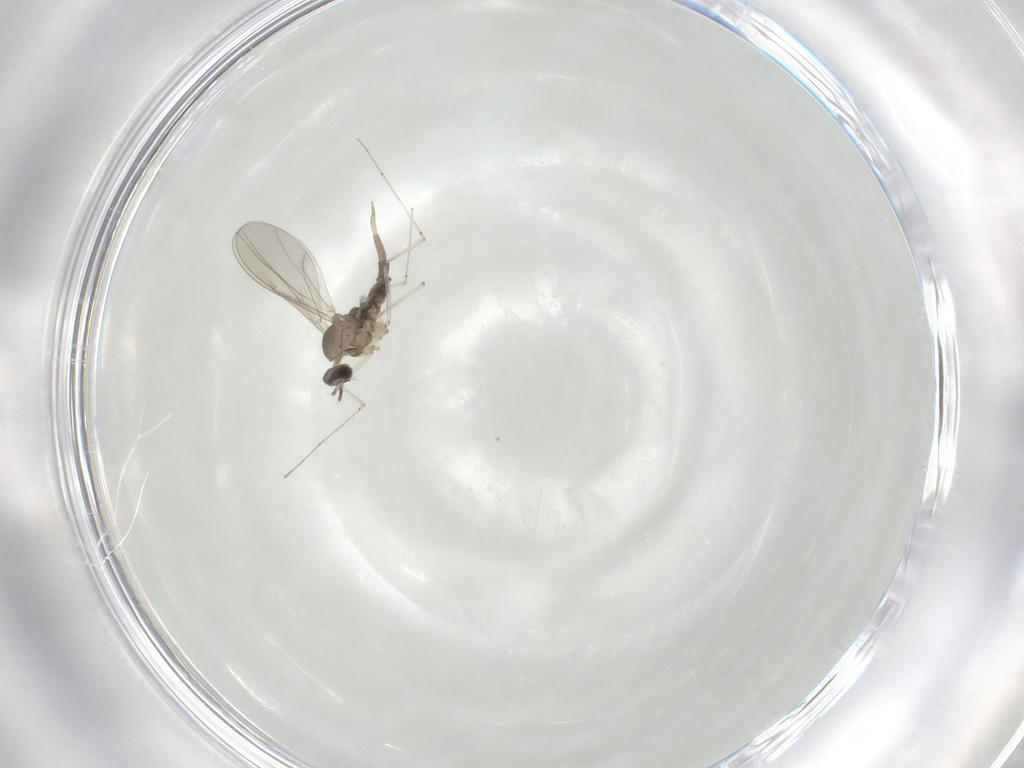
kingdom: Animalia
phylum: Arthropoda
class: Insecta
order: Diptera
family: Cecidomyiidae
